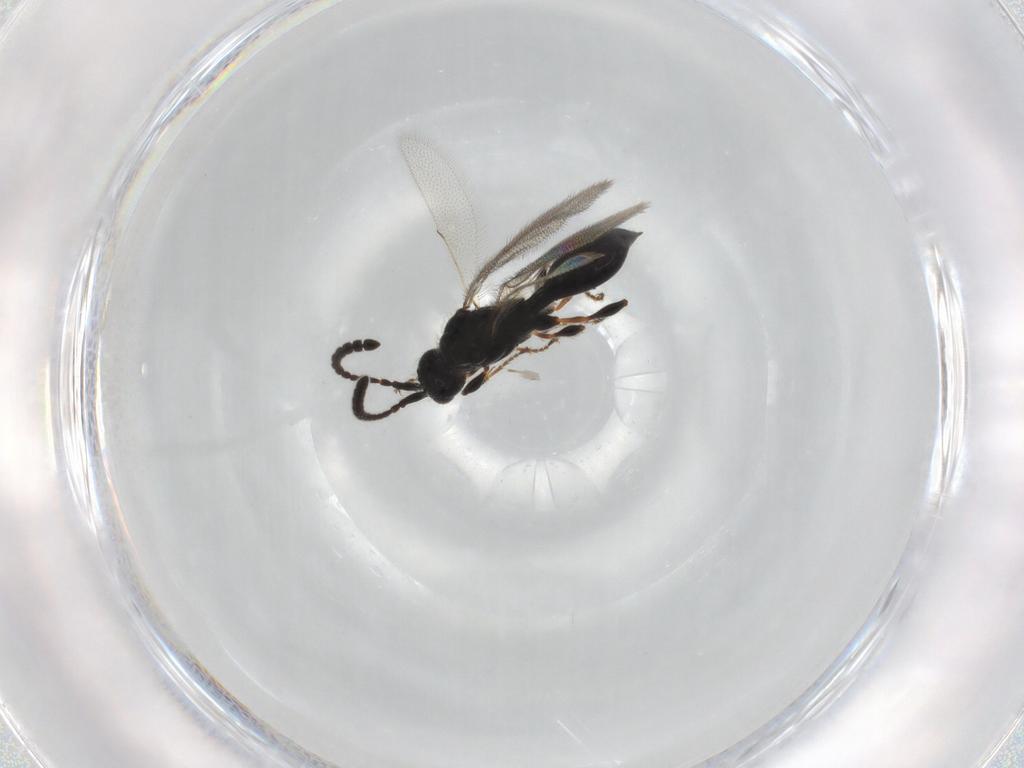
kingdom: Animalia
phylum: Arthropoda
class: Insecta
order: Hymenoptera
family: Diapriidae
